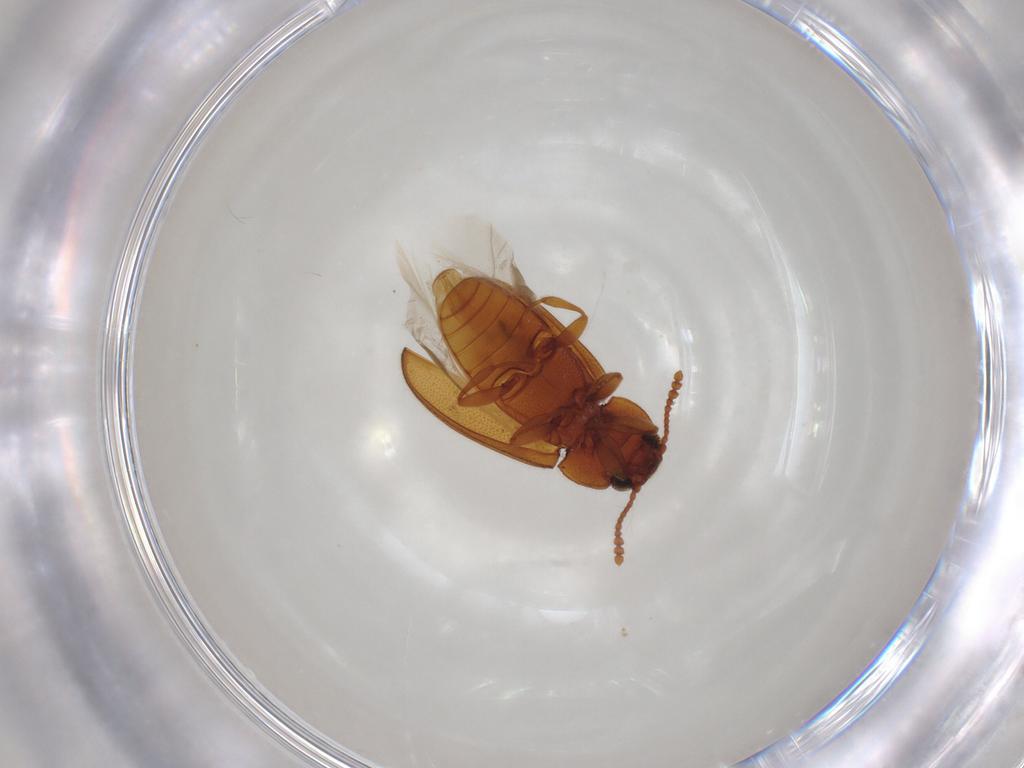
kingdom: Animalia
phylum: Arthropoda
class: Insecta
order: Coleoptera
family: Erotylidae
